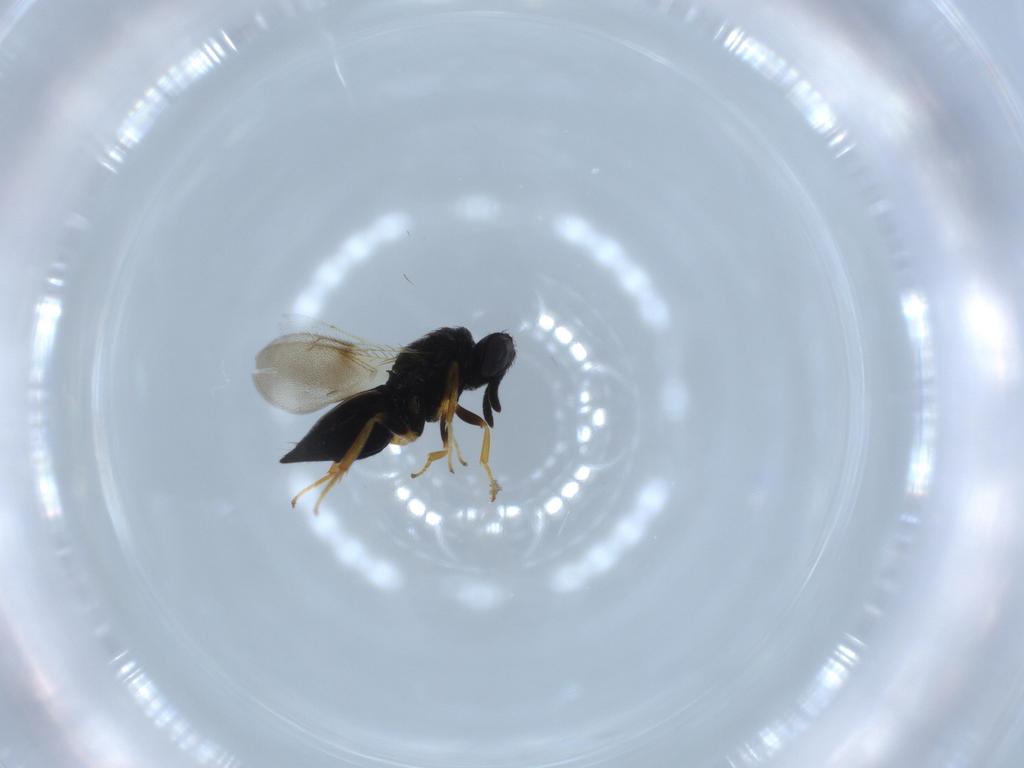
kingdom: Animalia
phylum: Arthropoda
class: Insecta
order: Hymenoptera
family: Pteromalidae
